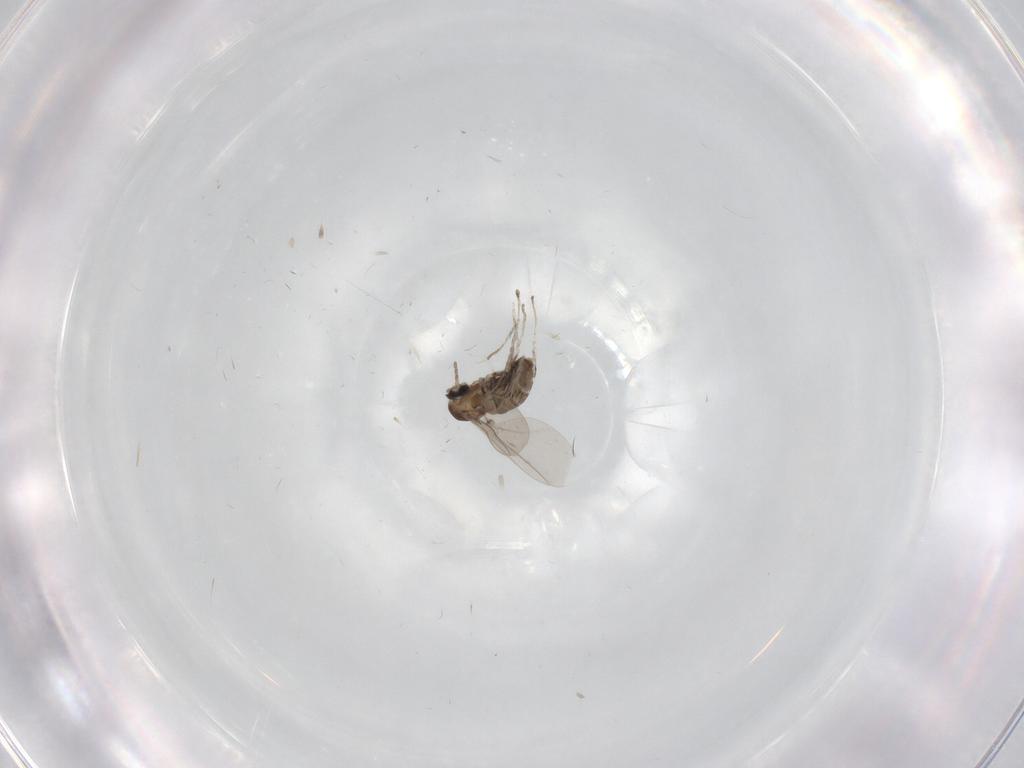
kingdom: Animalia
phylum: Arthropoda
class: Insecta
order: Diptera
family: Cecidomyiidae
